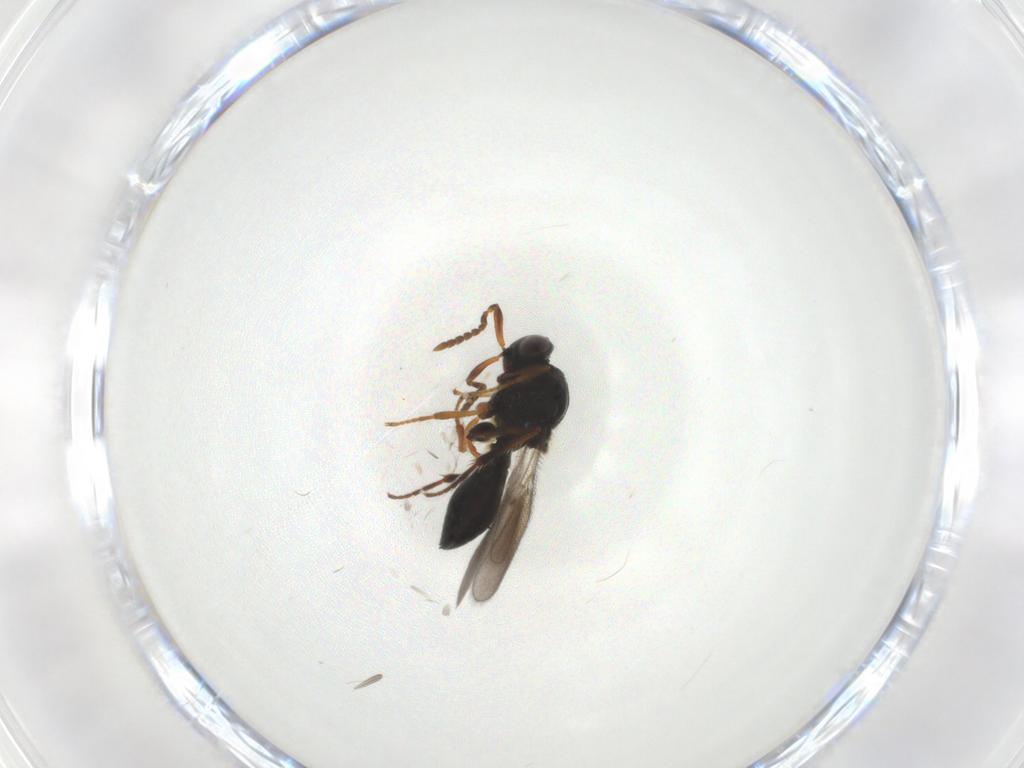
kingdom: Animalia
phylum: Arthropoda
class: Insecta
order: Hymenoptera
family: Platygastridae
